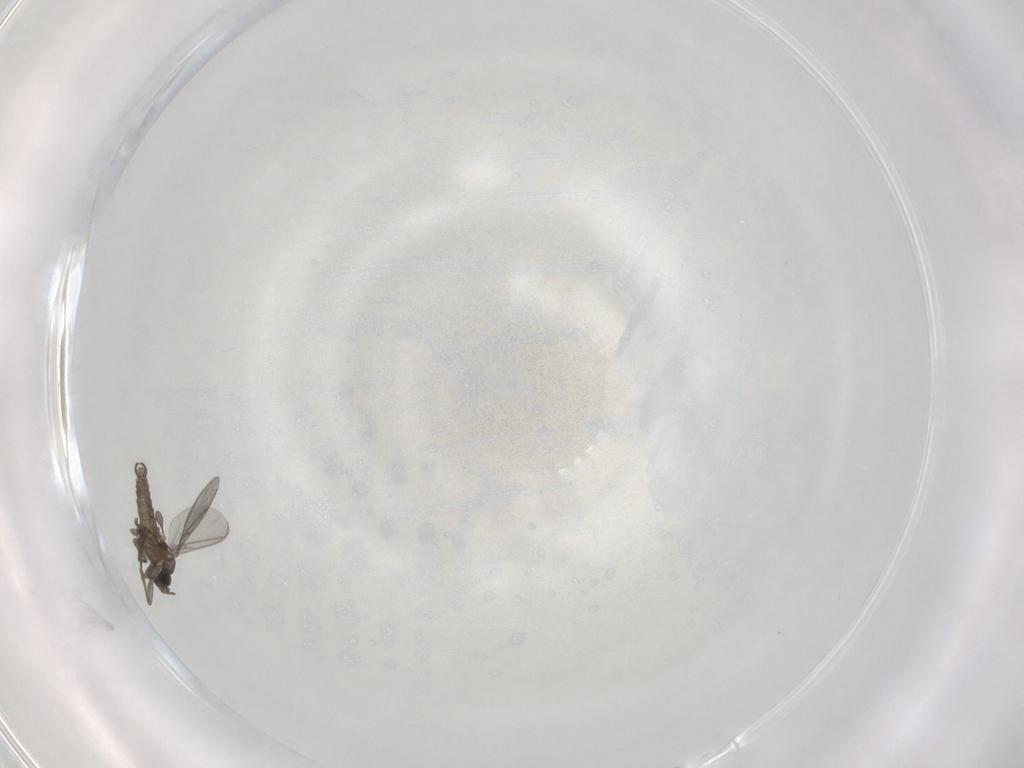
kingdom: Animalia
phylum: Arthropoda
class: Insecta
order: Diptera
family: Sciaridae
